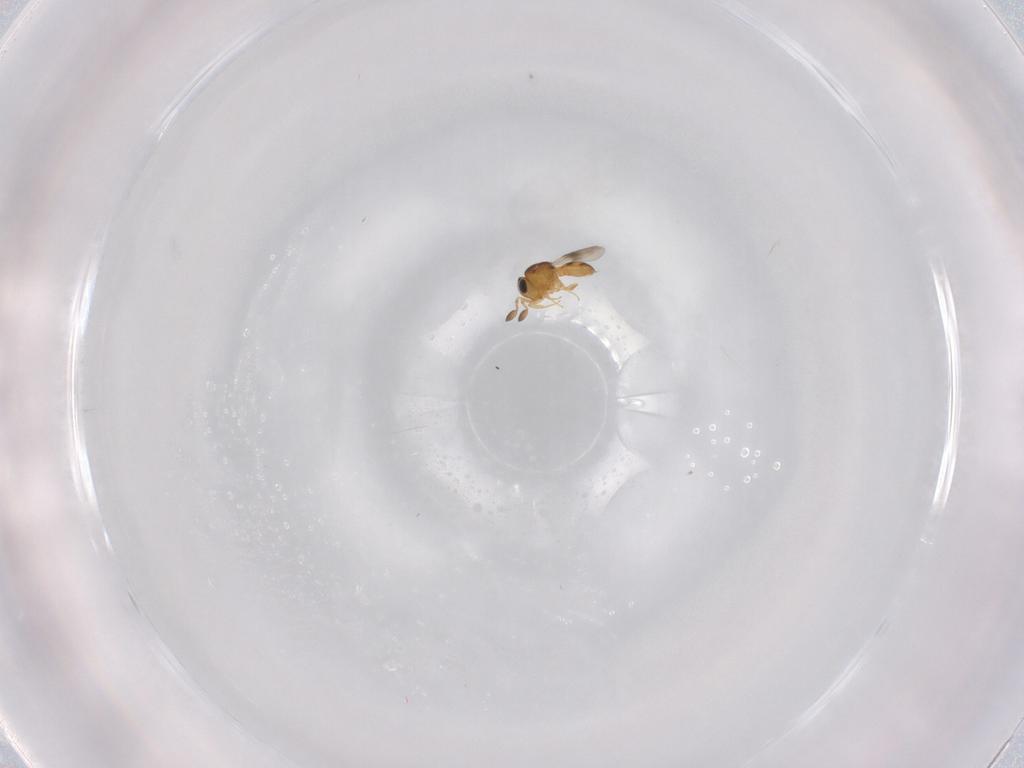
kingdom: Animalia
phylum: Arthropoda
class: Insecta
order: Hymenoptera
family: Scelionidae
